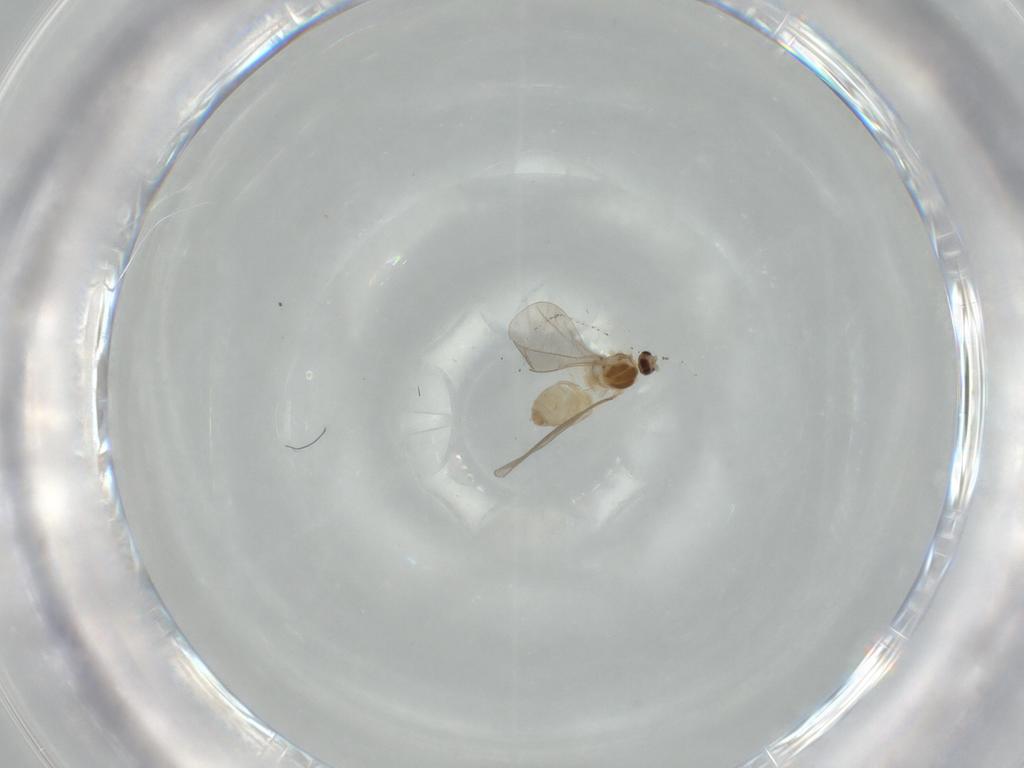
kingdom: Animalia
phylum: Arthropoda
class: Insecta
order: Diptera
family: Cecidomyiidae
